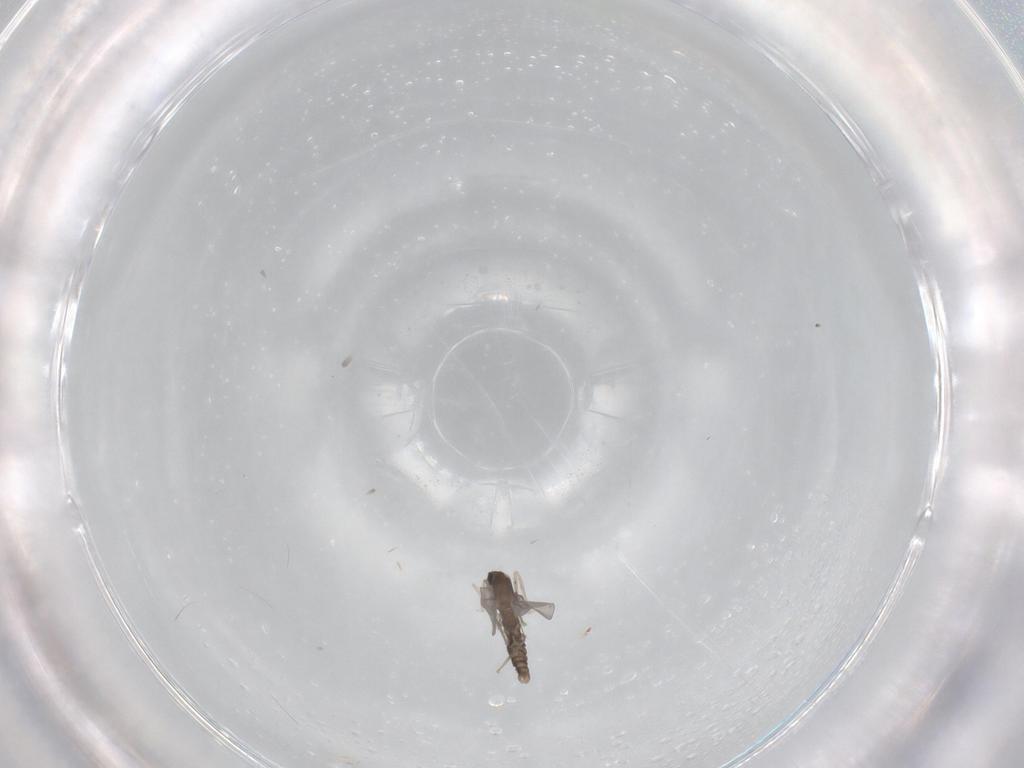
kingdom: Animalia
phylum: Arthropoda
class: Insecta
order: Diptera
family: Cecidomyiidae
